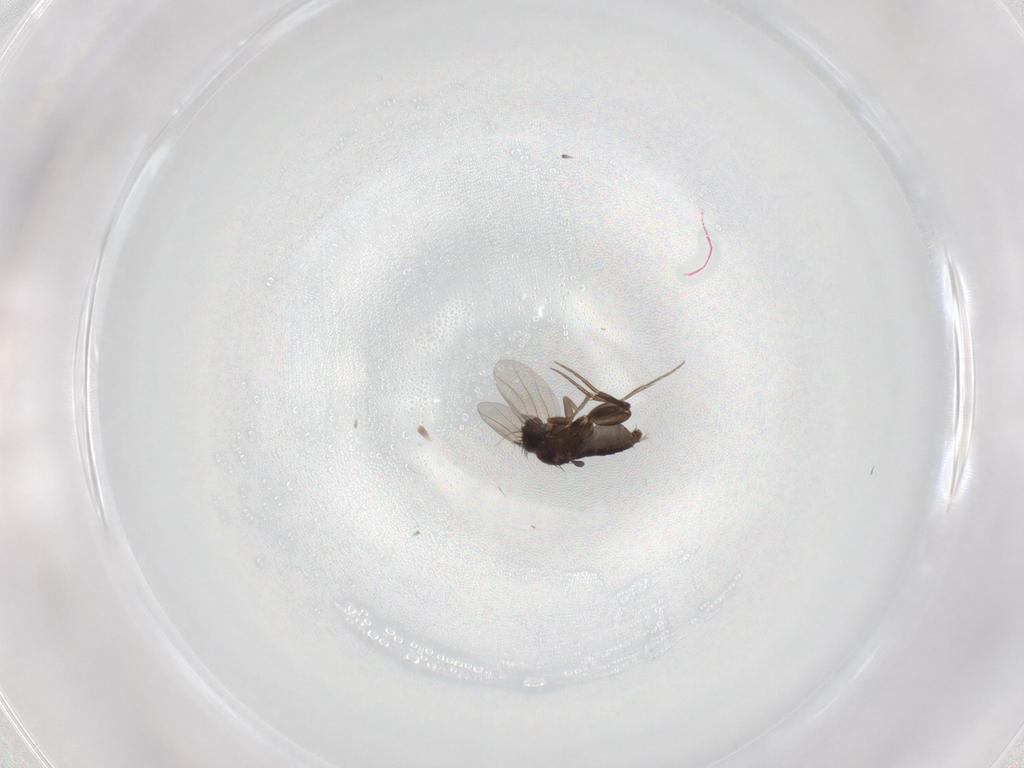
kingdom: Animalia
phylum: Arthropoda
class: Insecta
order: Diptera
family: Phoridae
